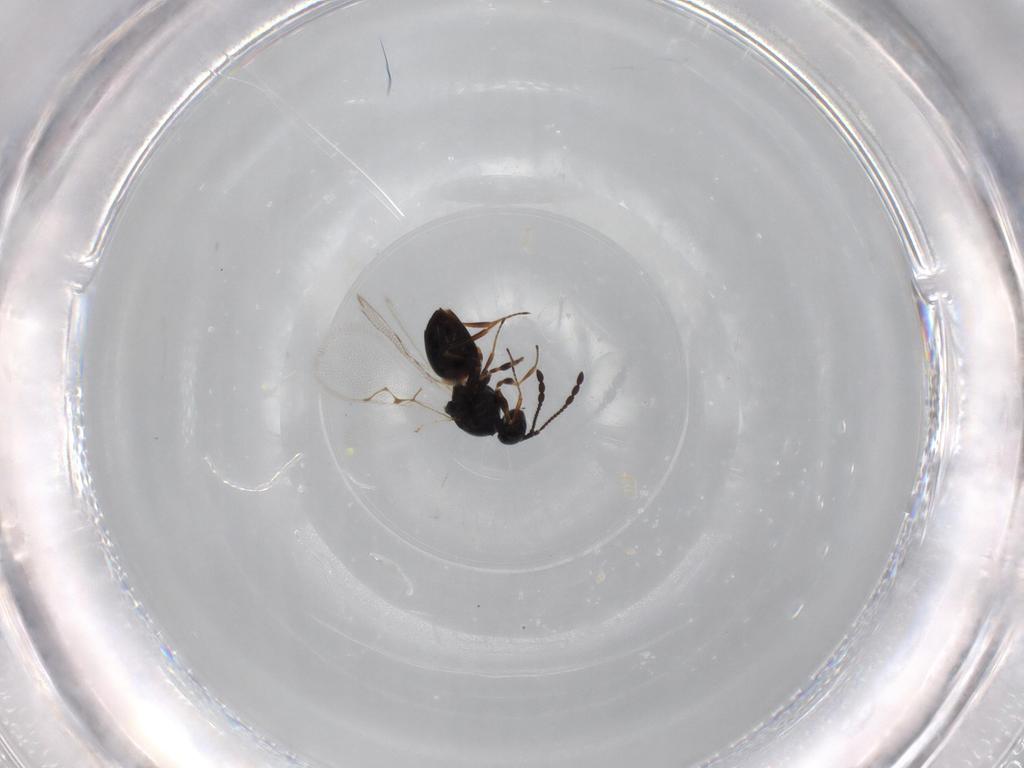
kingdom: Animalia
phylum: Arthropoda
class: Insecta
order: Hymenoptera
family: Figitidae
